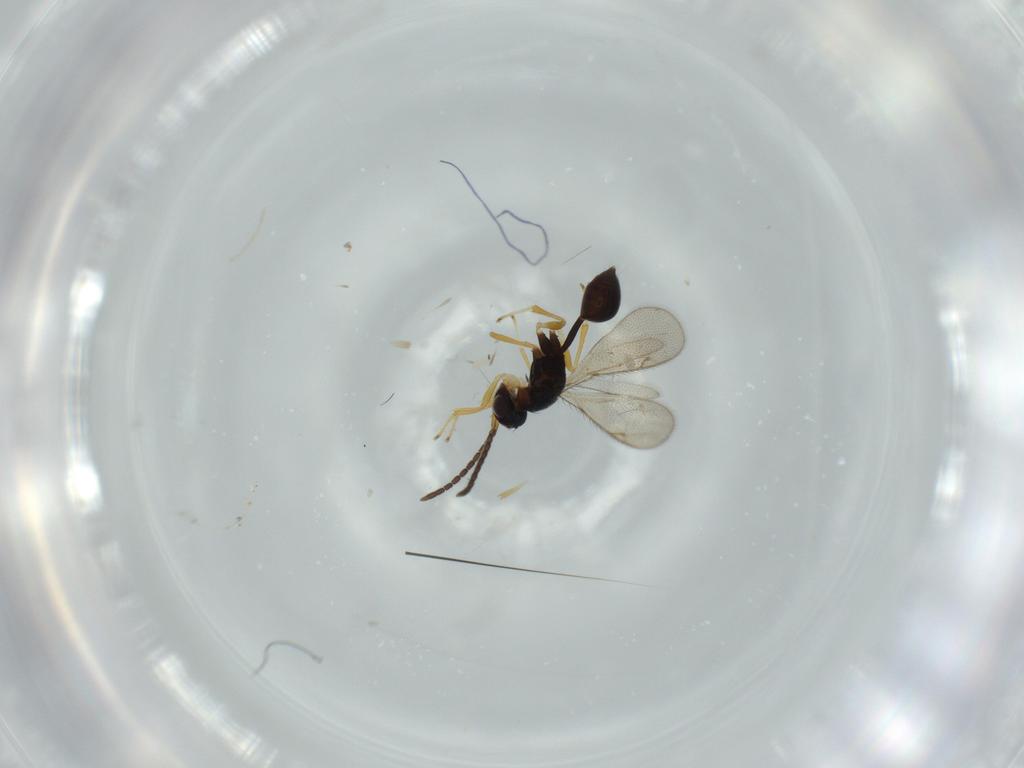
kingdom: Animalia
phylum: Arthropoda
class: Insecta
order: Hymenoptera
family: Diparidae
